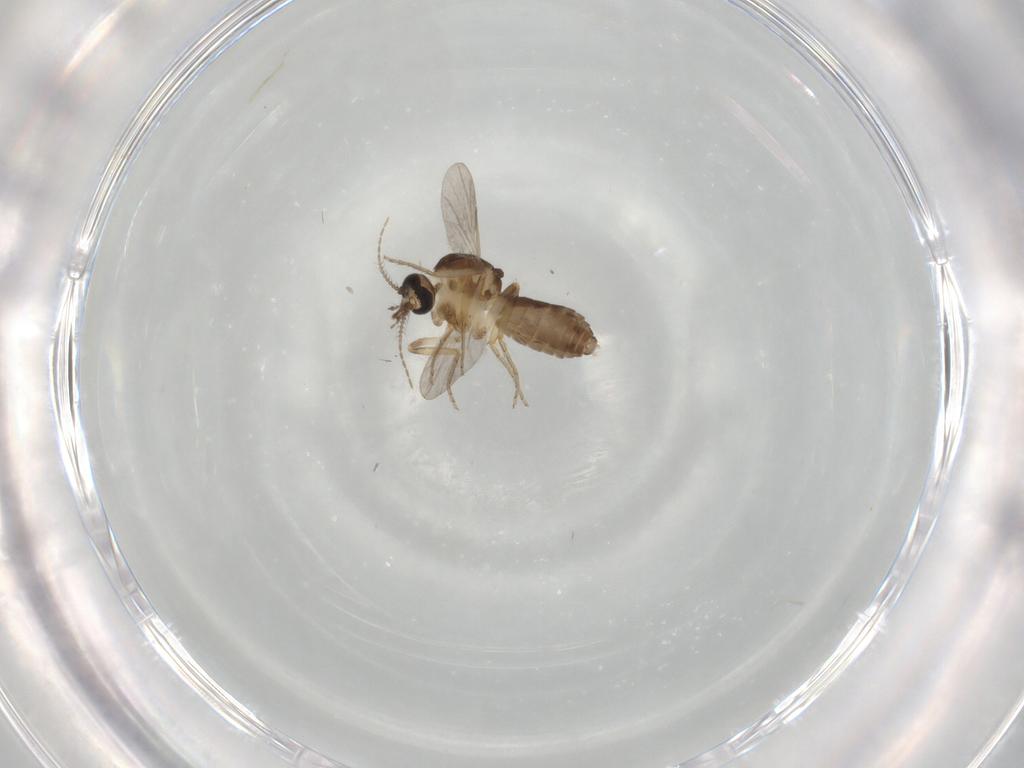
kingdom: Animalia
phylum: Arthropoda
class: Insecta
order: Diptera
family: Ceratopogonidae
